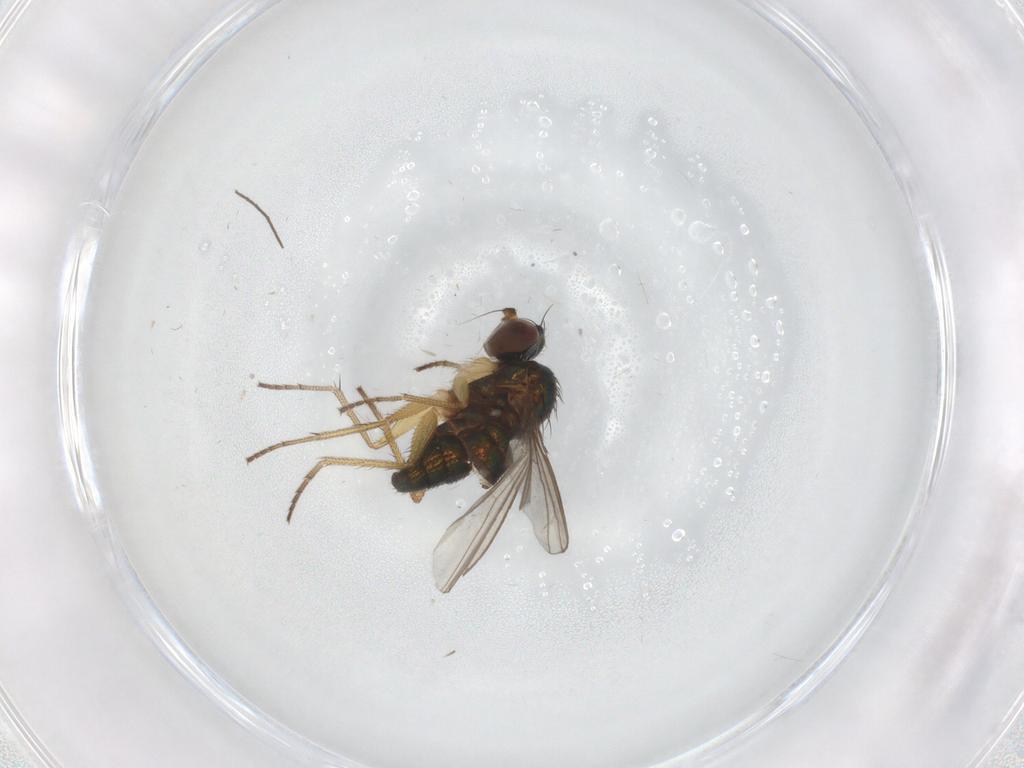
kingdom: Animalia
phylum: Arthropoda
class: Insecta
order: Diptera
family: Dolichopodidae
